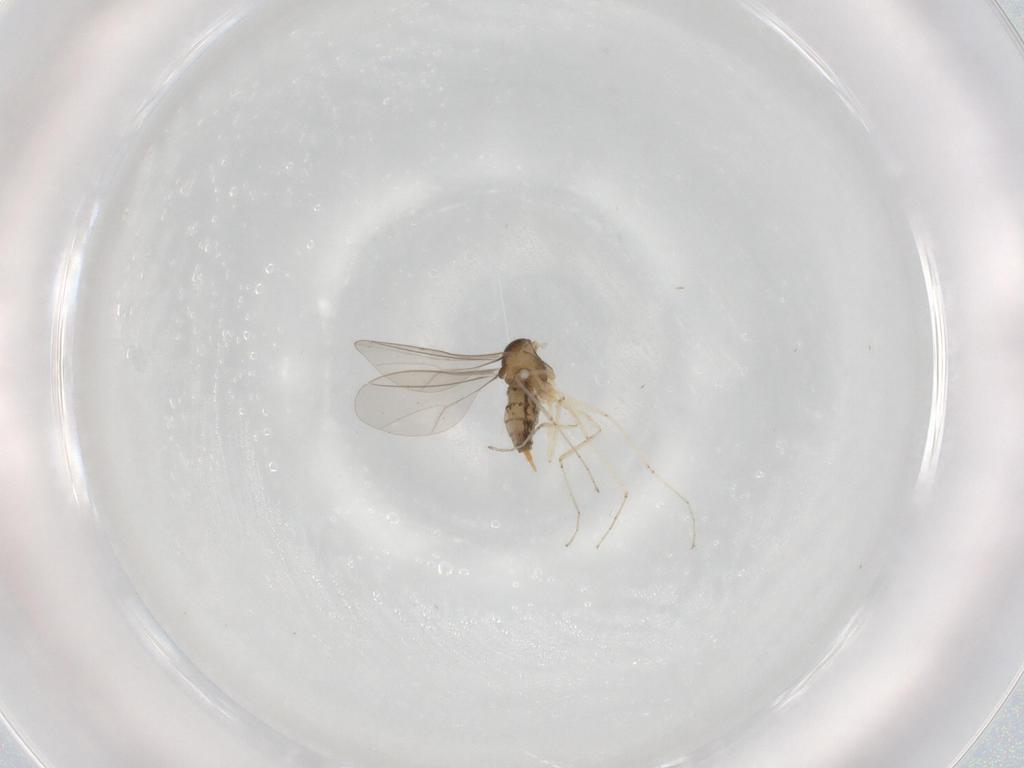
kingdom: Animalia
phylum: Arthropoda
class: Insecta
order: Diptera
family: Cecidomyiidae
